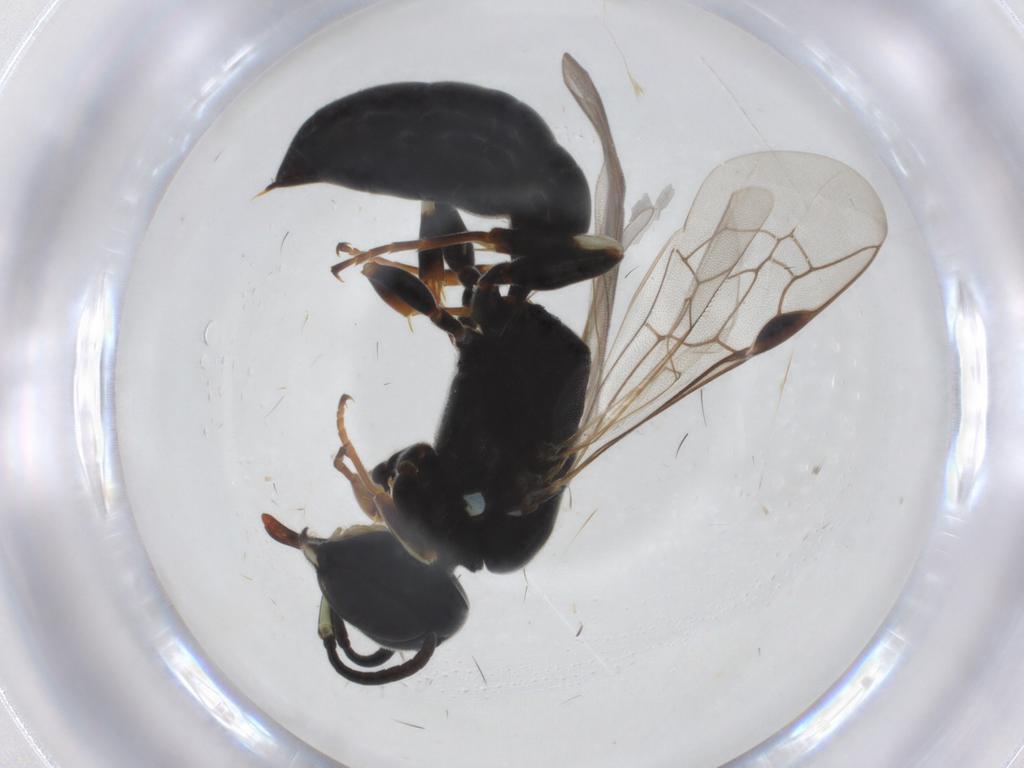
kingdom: Animalia
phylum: Arthropoda
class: Insecta
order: Hymenoptera
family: Pemphredonidae
